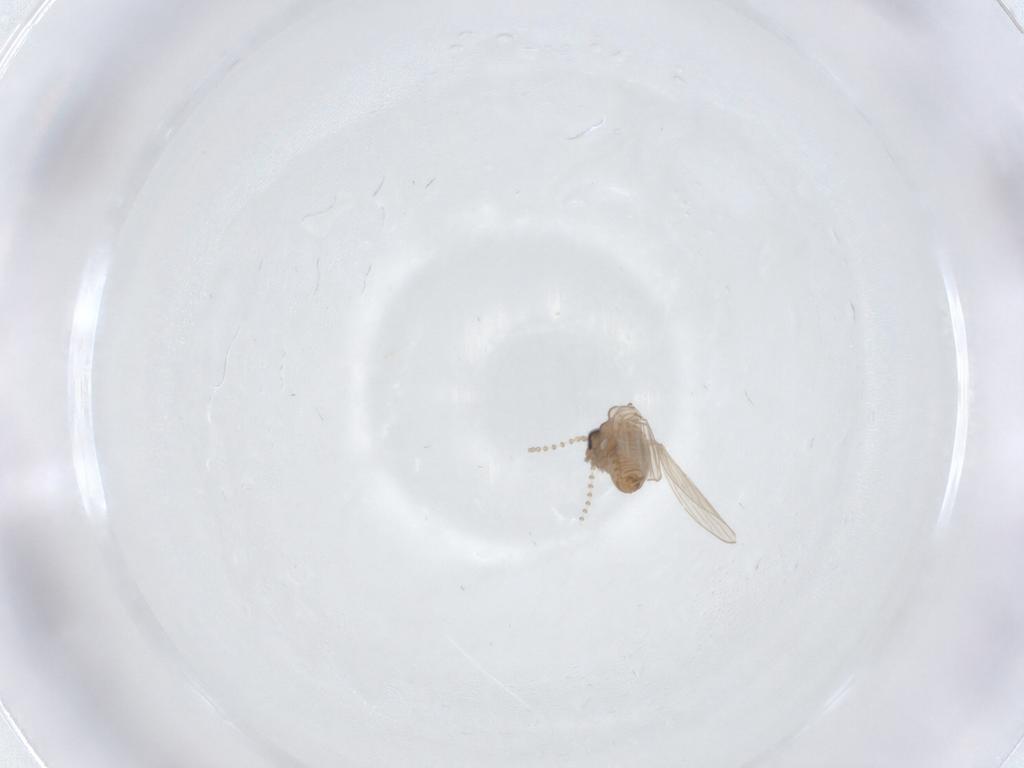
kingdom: Animalia
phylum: Arthropoda
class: Insecta
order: Diptera
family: Psychodidae
